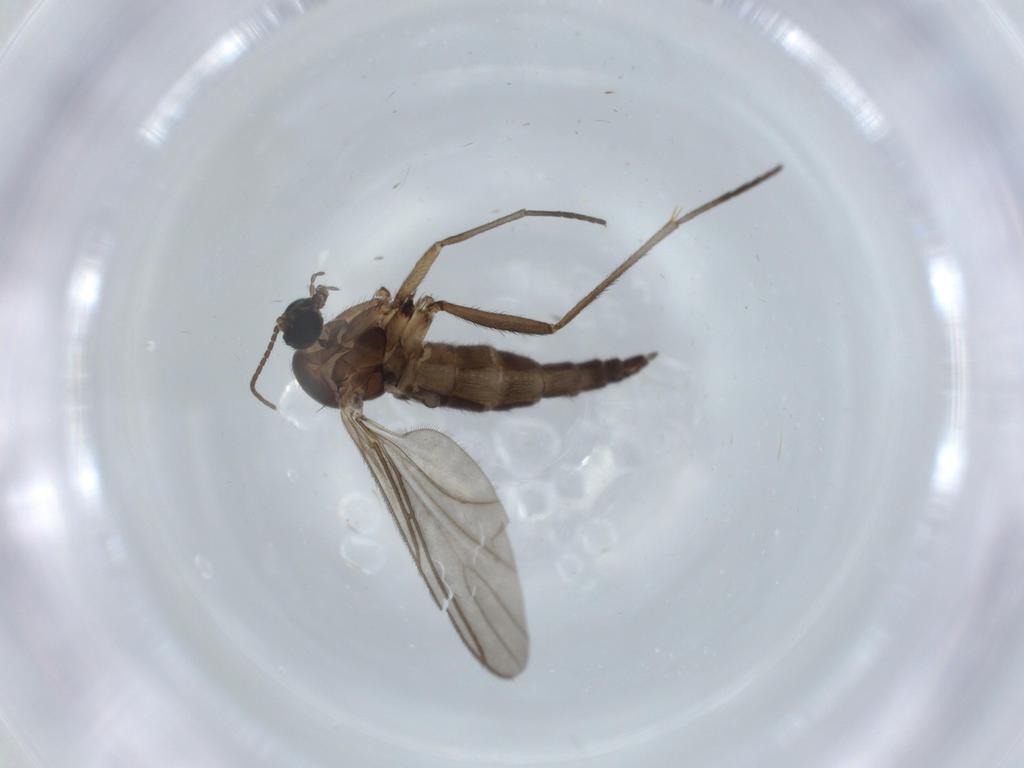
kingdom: Animalia
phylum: Arthropoda
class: Insecta
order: Diptera
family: Sciaridae
